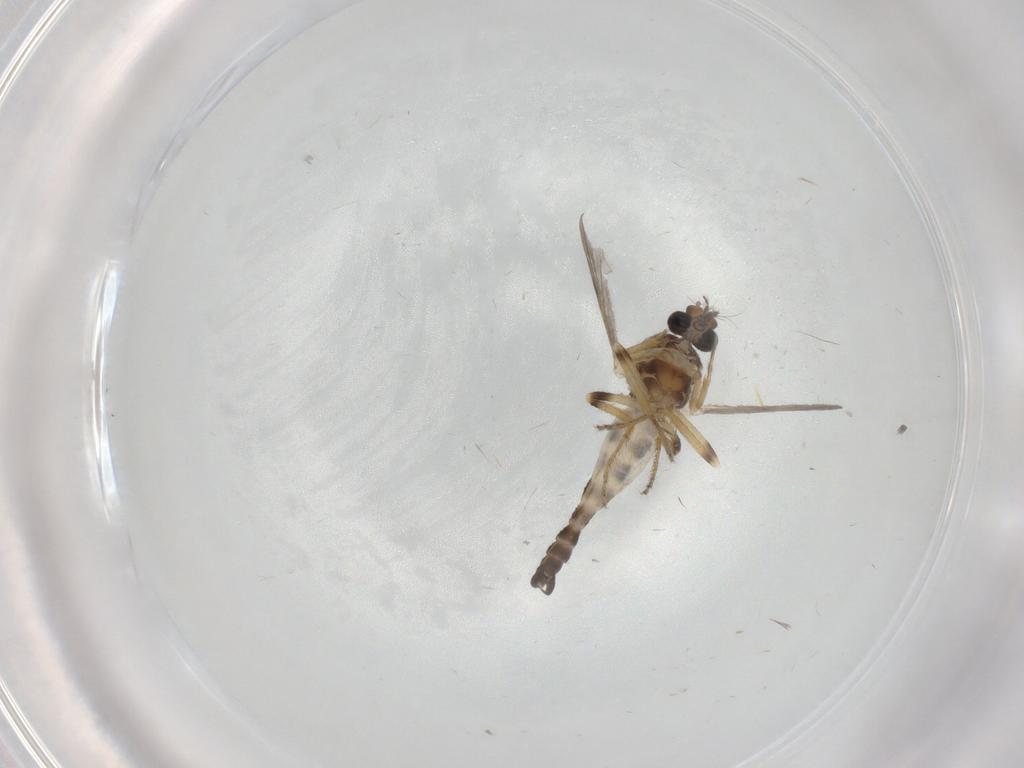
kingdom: Animalia
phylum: Arthropoda
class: Insecta
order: Diptera
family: Ceratopogonidae
